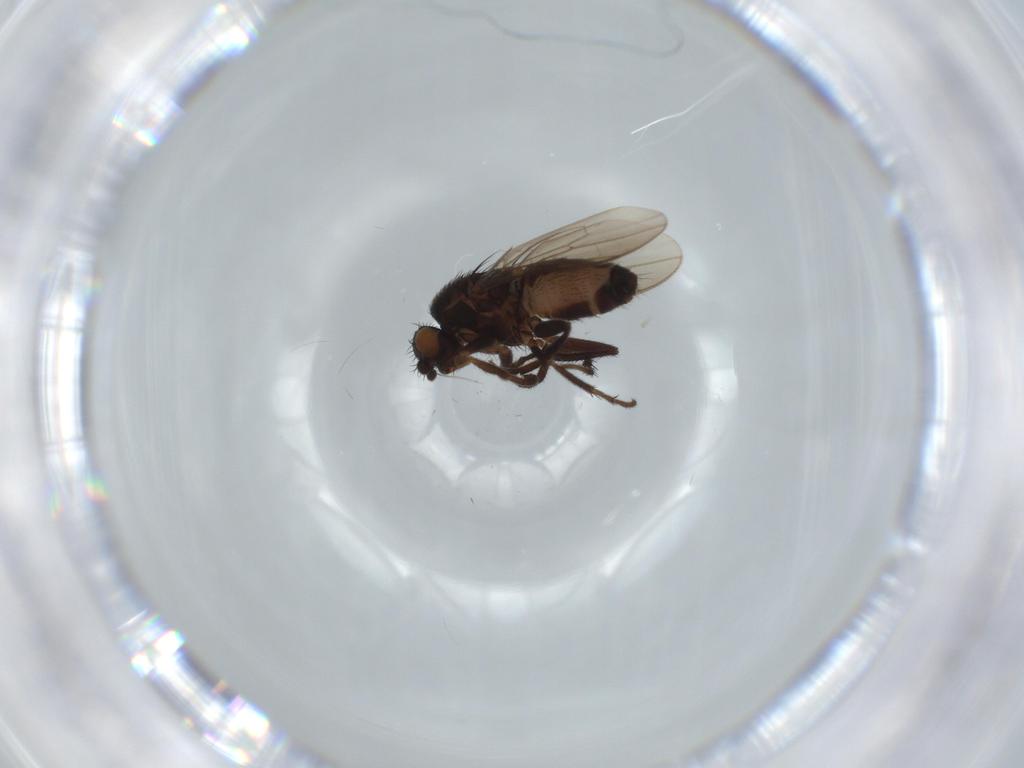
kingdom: Animalia
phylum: Arthropoda
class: Insecta
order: Diptera
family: Sphaeroceridae
